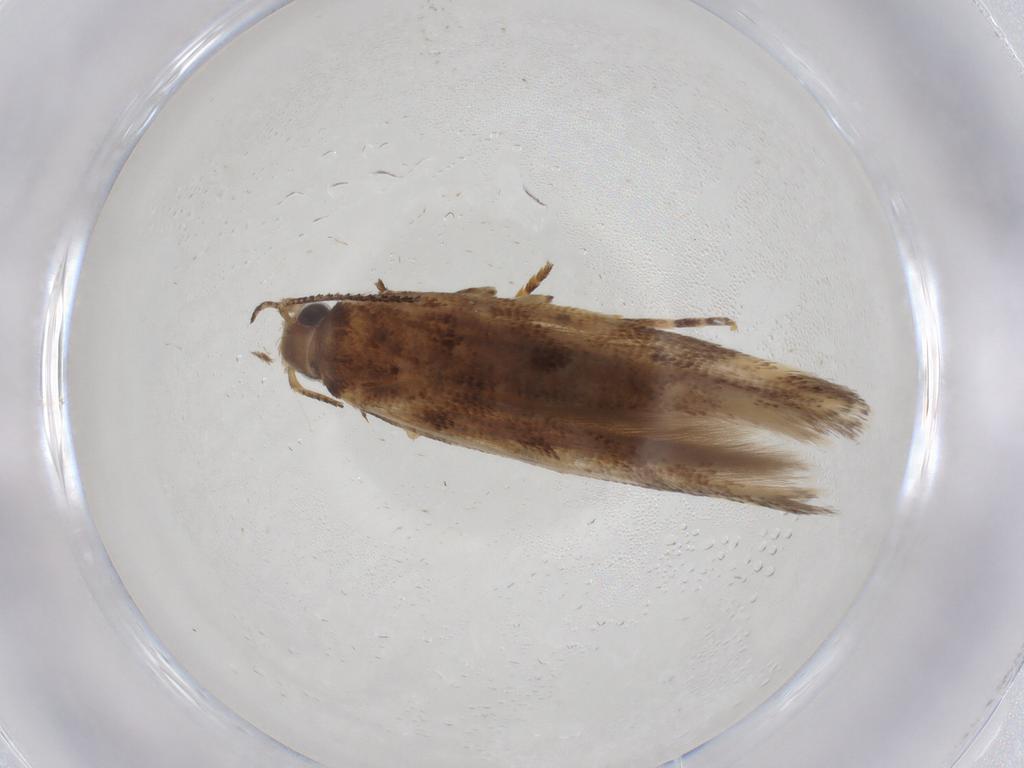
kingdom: Animalia
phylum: Arthropoda
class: Insecta
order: Lepidoptera
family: Gelechiidae
